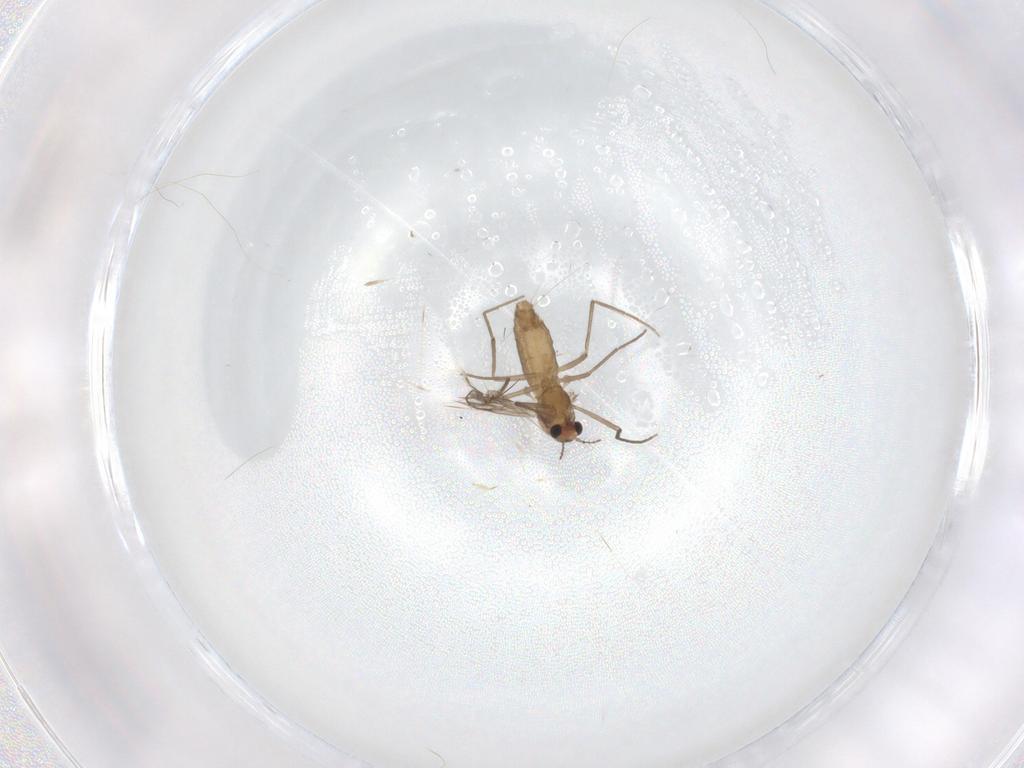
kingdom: Animalia
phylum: Arthropoda
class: Insecta
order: Diptera
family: Chironomidae
